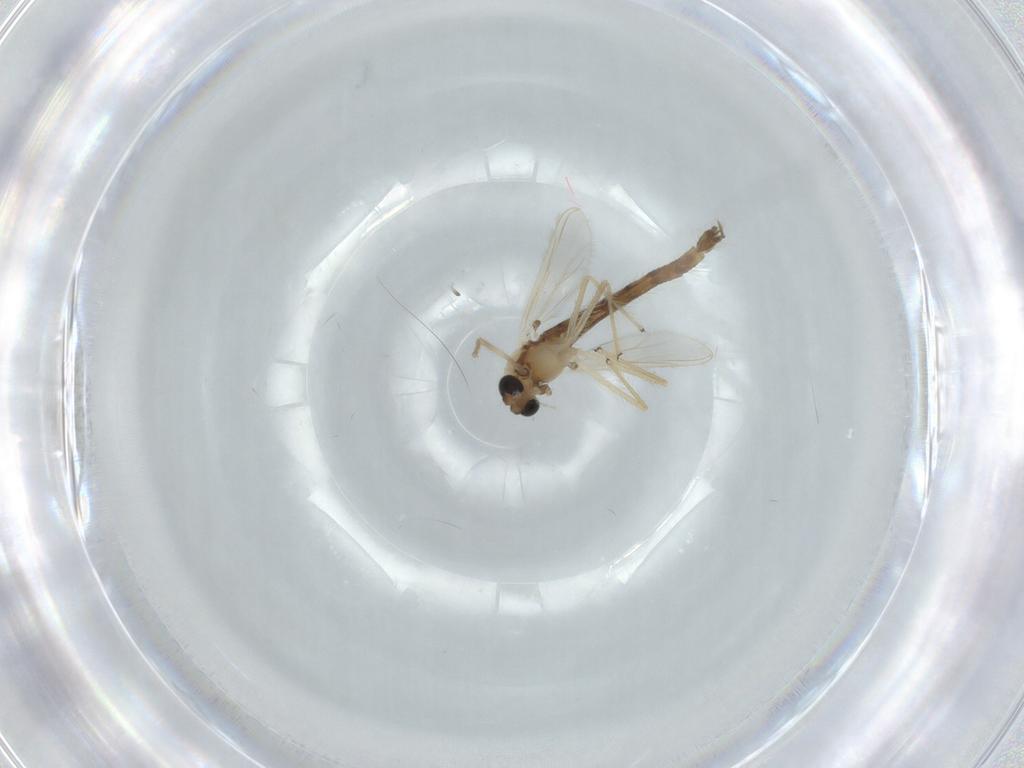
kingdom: Animalia
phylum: Arthropoda
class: Insecta
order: Diptera
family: Chironomidae
